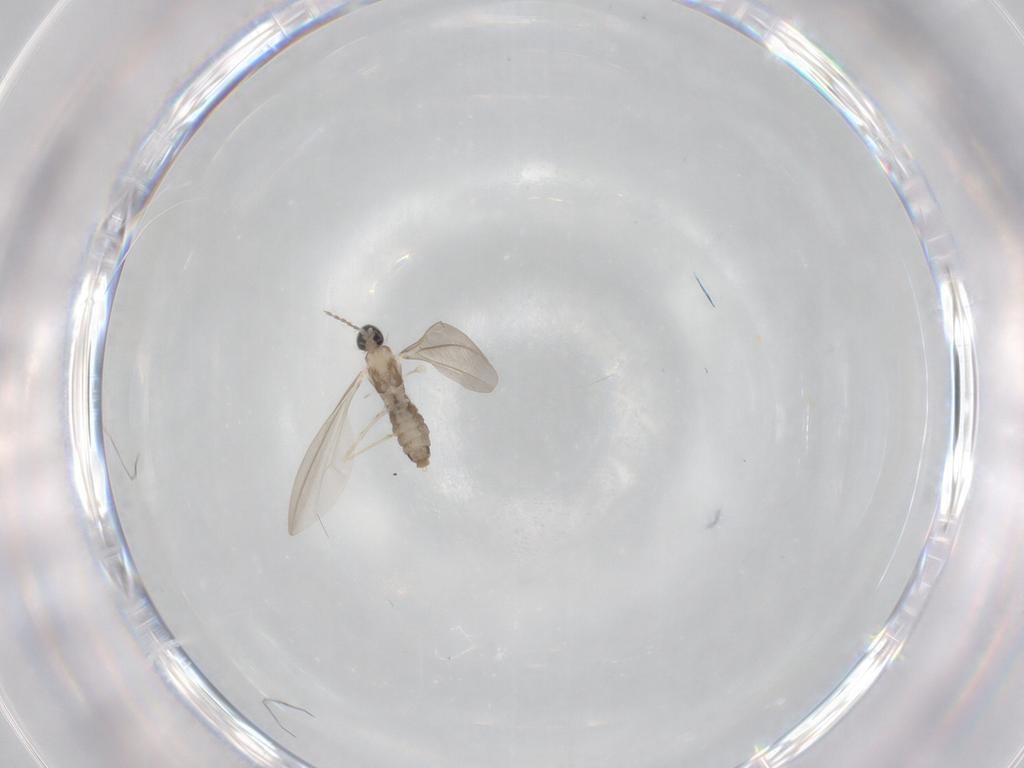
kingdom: Animalia
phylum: Arthropoda
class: Insecta
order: Diptera
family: Cecidomyiidae
